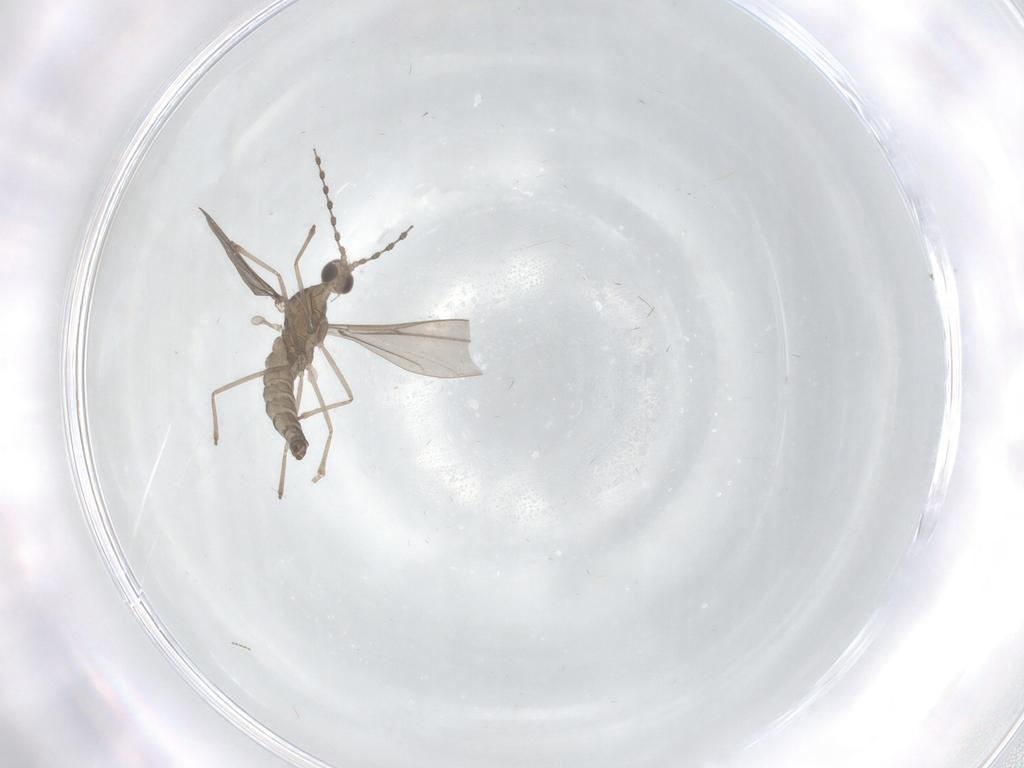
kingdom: Animalia
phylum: Arthropoda
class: Insecta
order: Diptera
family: Cecidomyiidae
